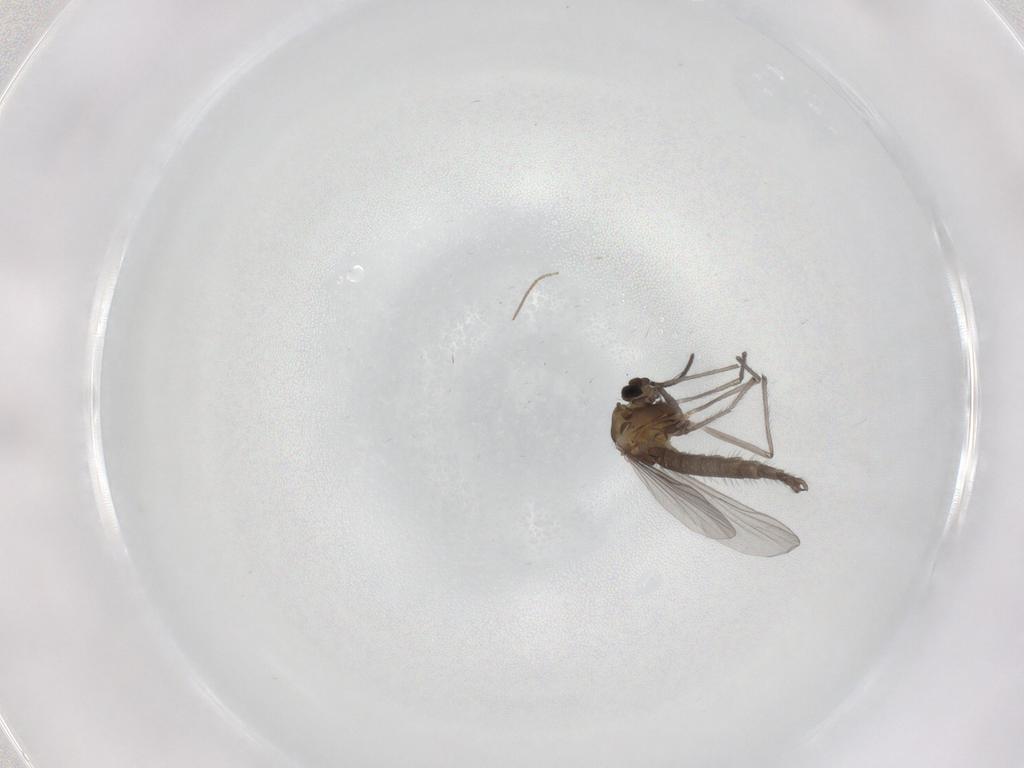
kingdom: Animalia
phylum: Arthropoda
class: Insecta
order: Diptera
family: Chironomidae
